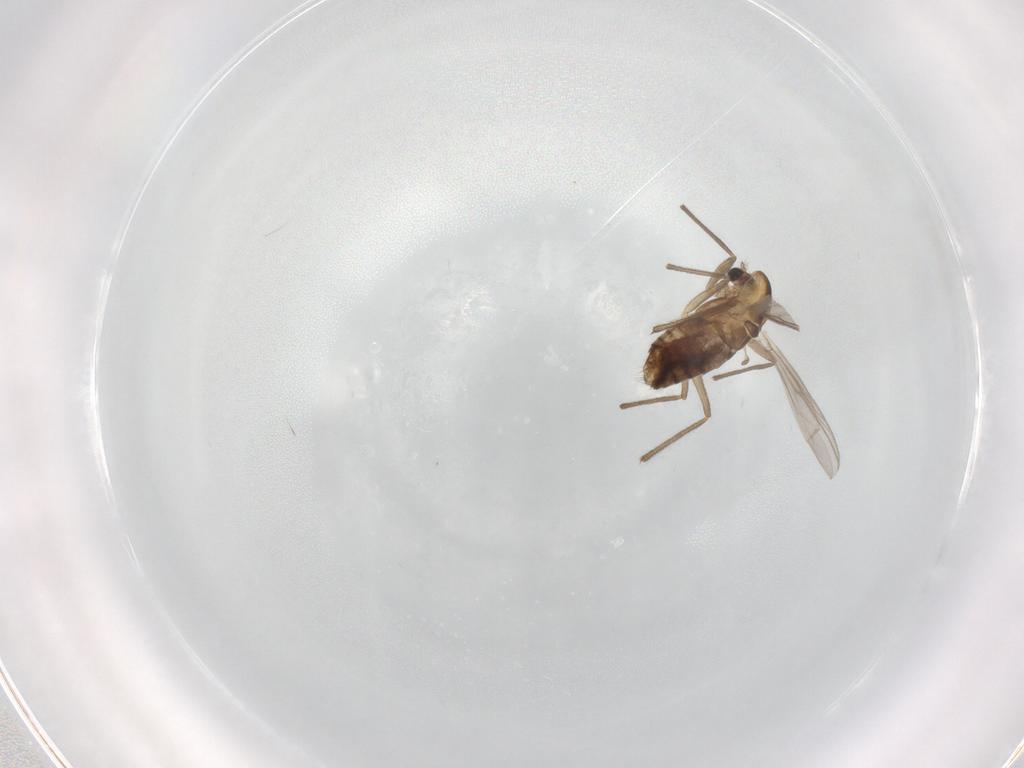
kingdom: Animalia
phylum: Arthropoda
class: Insecta
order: Diptera
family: Chironomidae
